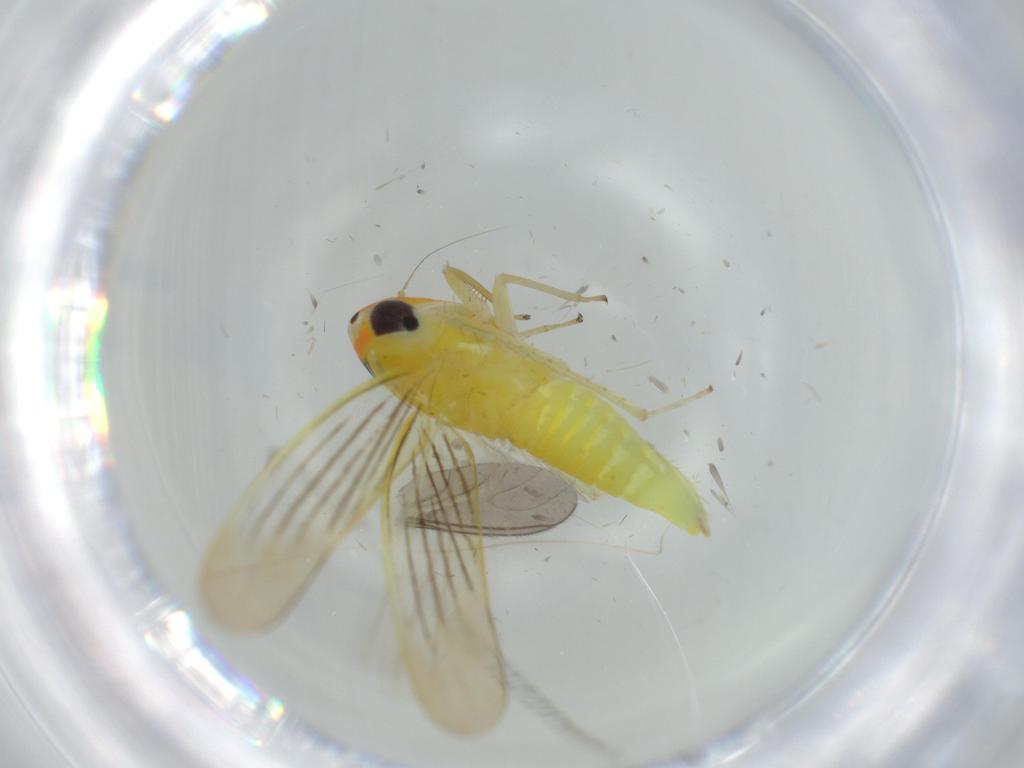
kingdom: Animalia
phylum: Arthropoda
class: Insecta
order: Hemiptera
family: Cicadellidae
